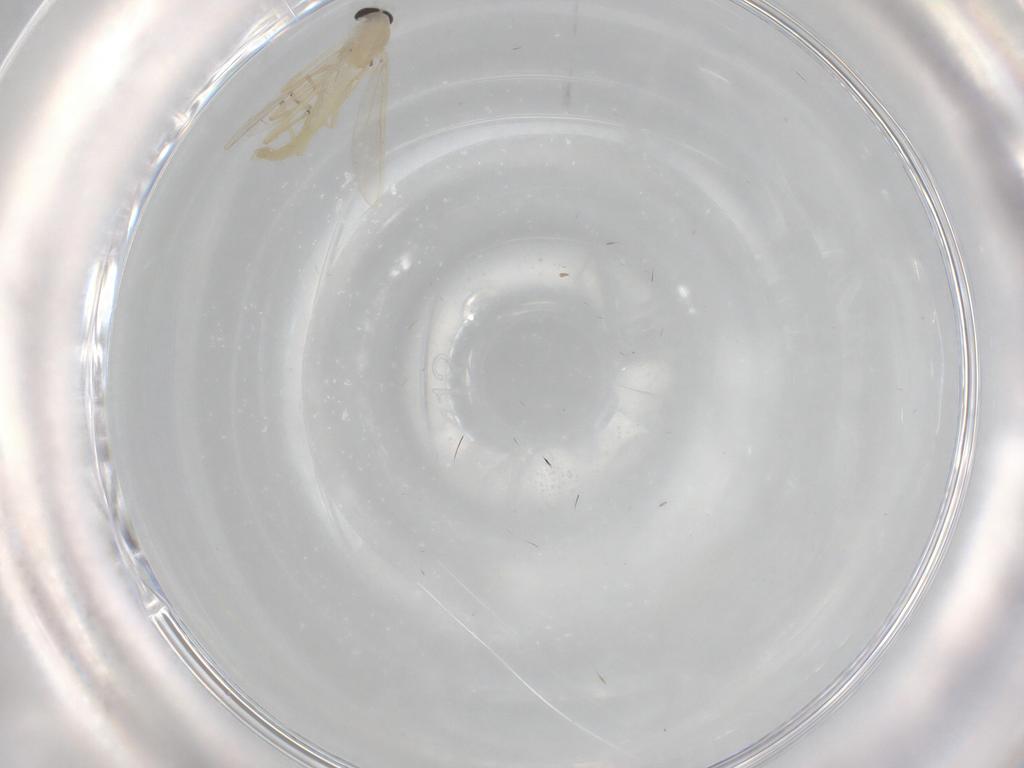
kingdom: Animalia
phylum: Arthropoda
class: Insecta
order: Diptera
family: Chironomidae
